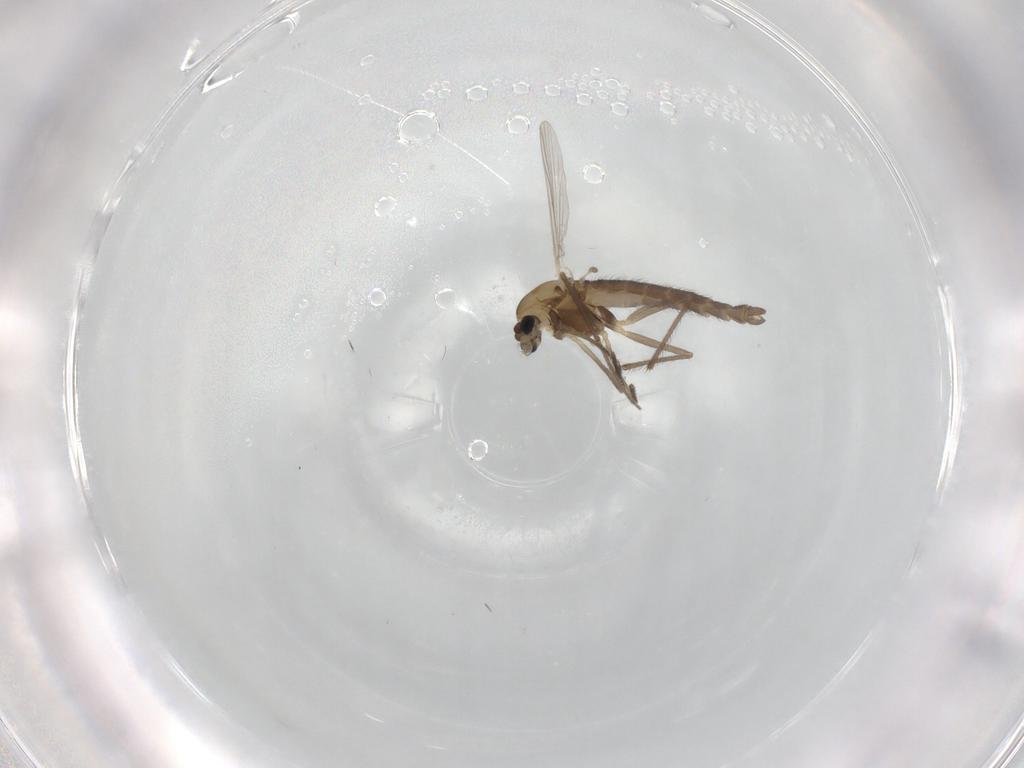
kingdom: Animalia
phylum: Arthropoda
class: Insecta
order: Diptera
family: Chironomidae
